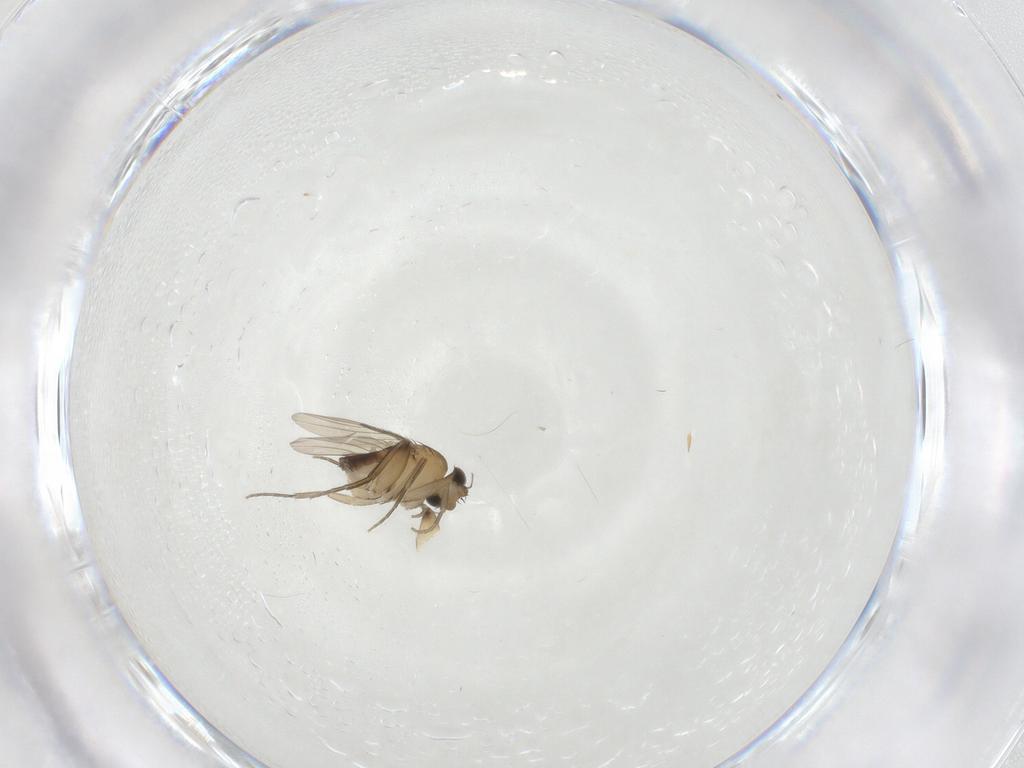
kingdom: Animalia
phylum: Arthropoda
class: Insecta
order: Diptera
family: Phoridae
